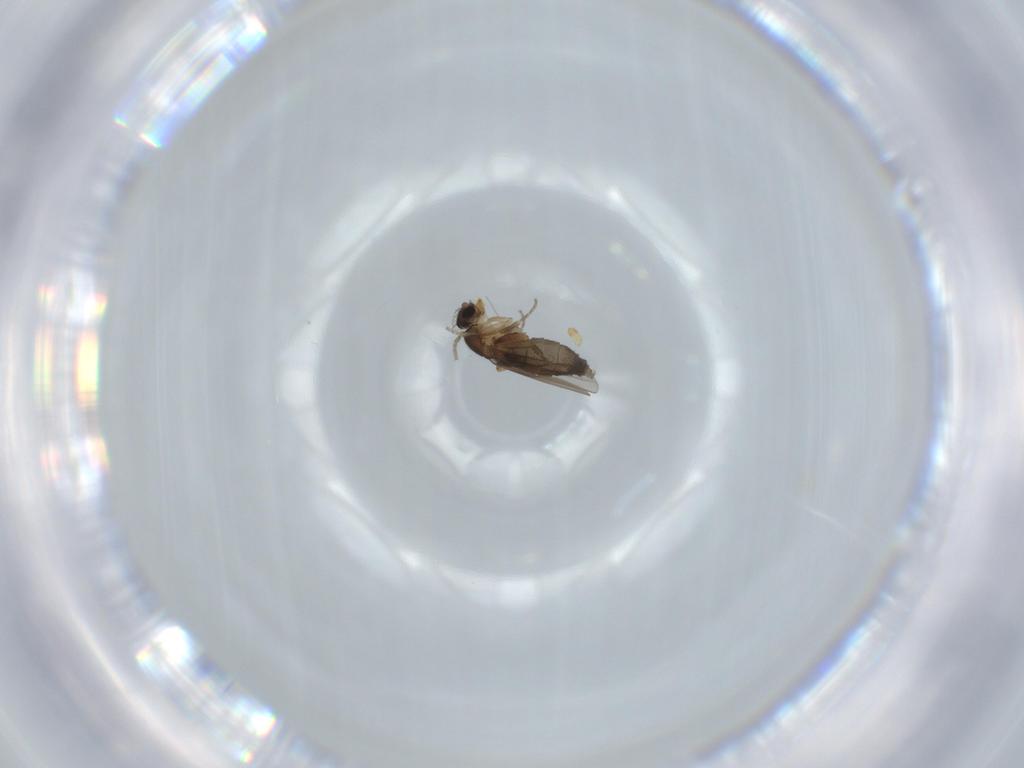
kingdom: Animalia
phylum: Arthropoda
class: Insecta
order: Diptera
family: Phoridae
